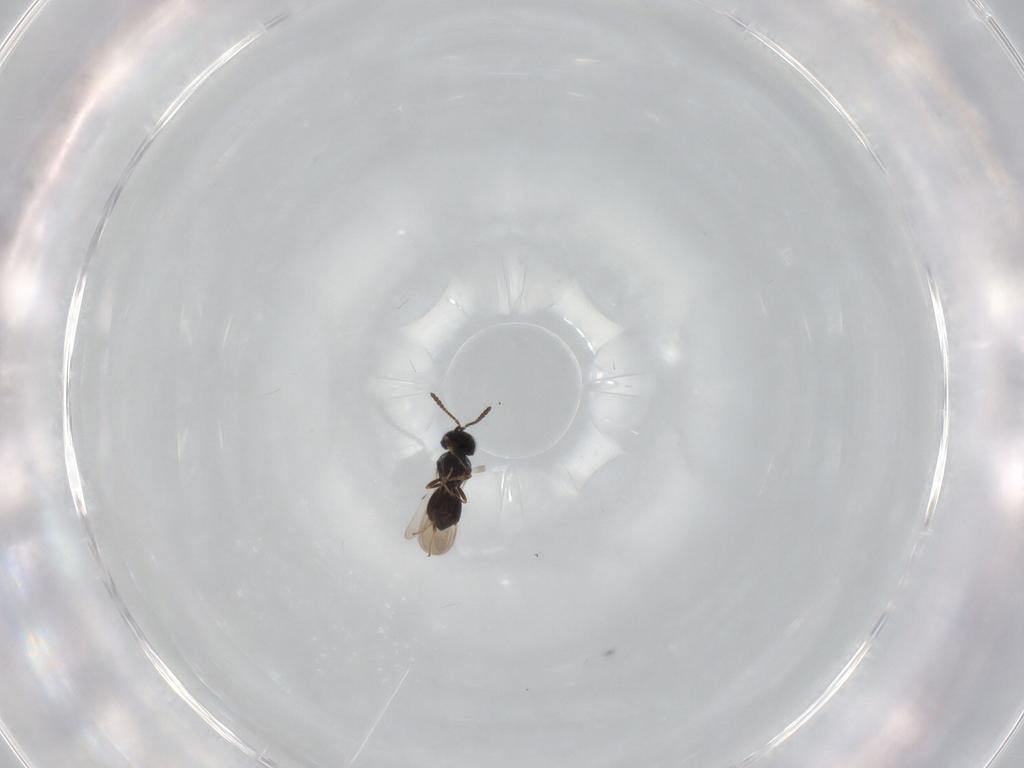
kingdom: Animalia
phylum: Arthropoda
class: Insecta
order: Hymenoptera
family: Scelionidae
